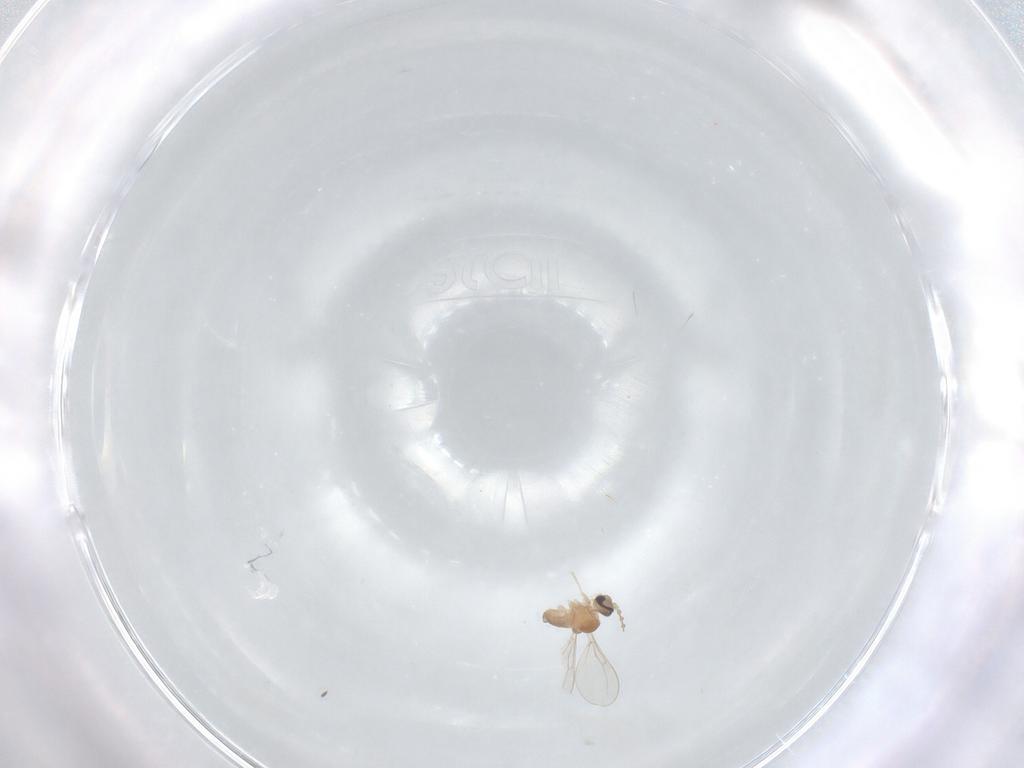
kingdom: Animalia
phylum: Arthropoda
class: Insecta
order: Diptera
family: Cecidomyiidae
